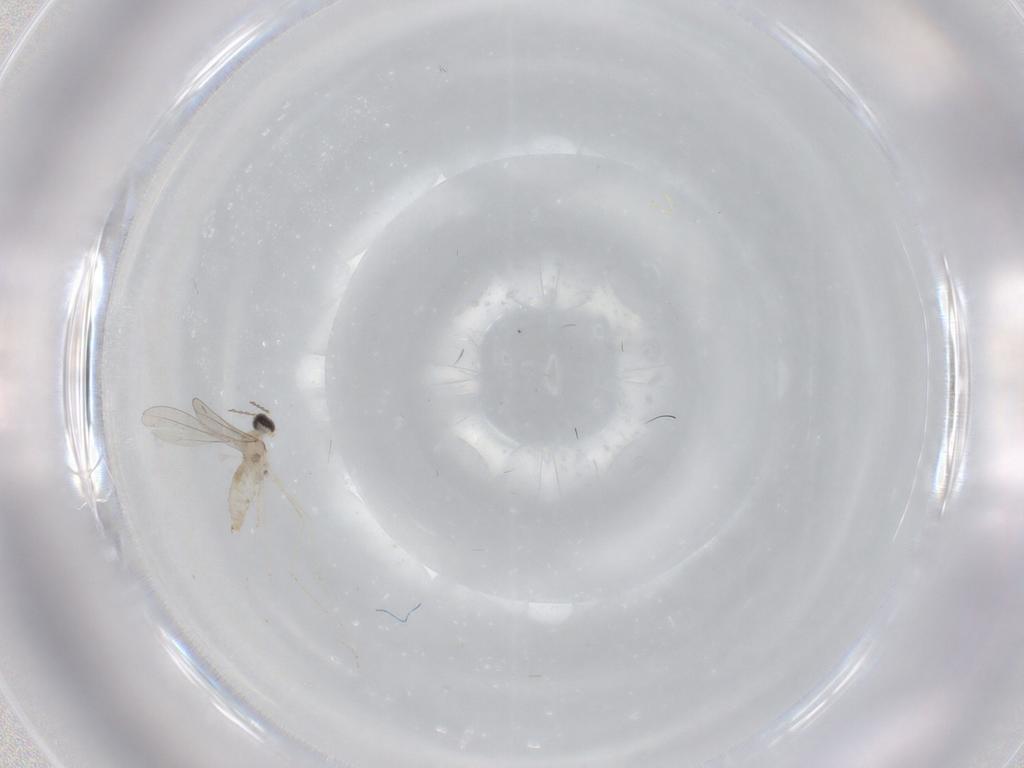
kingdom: Animalia
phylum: Arthropoda
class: Insecta
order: Diptera
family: Cecidomyiidae
